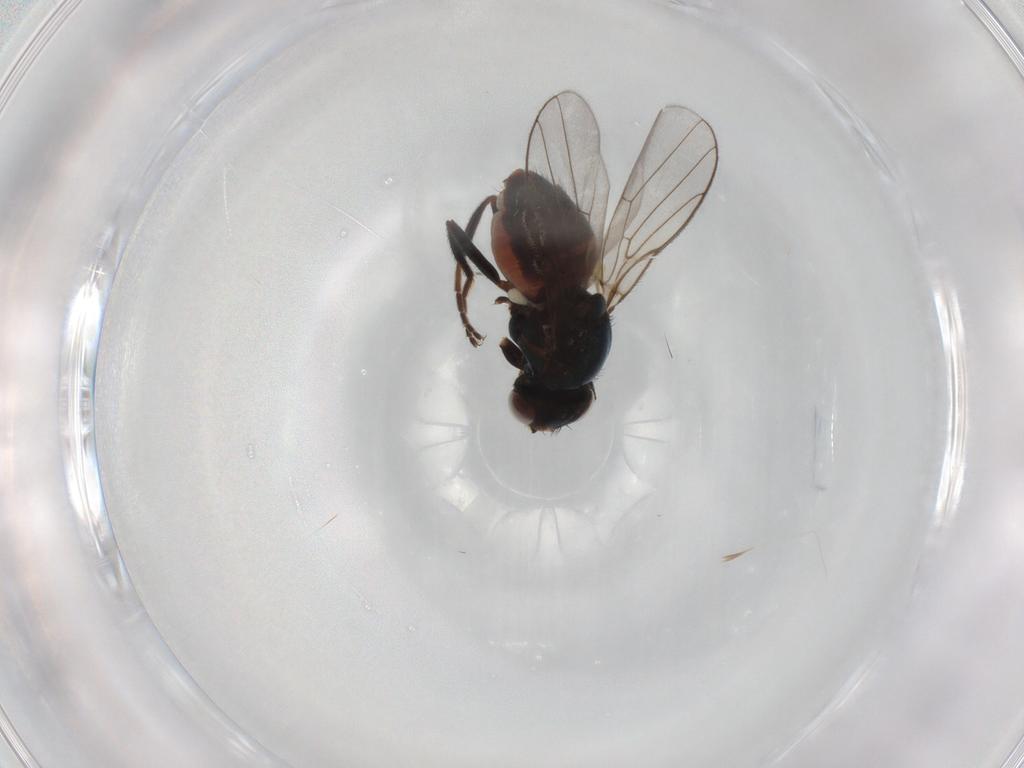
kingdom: Animalia
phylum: Arthropoda
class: Insecta
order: Diptera
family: Chloropidae
